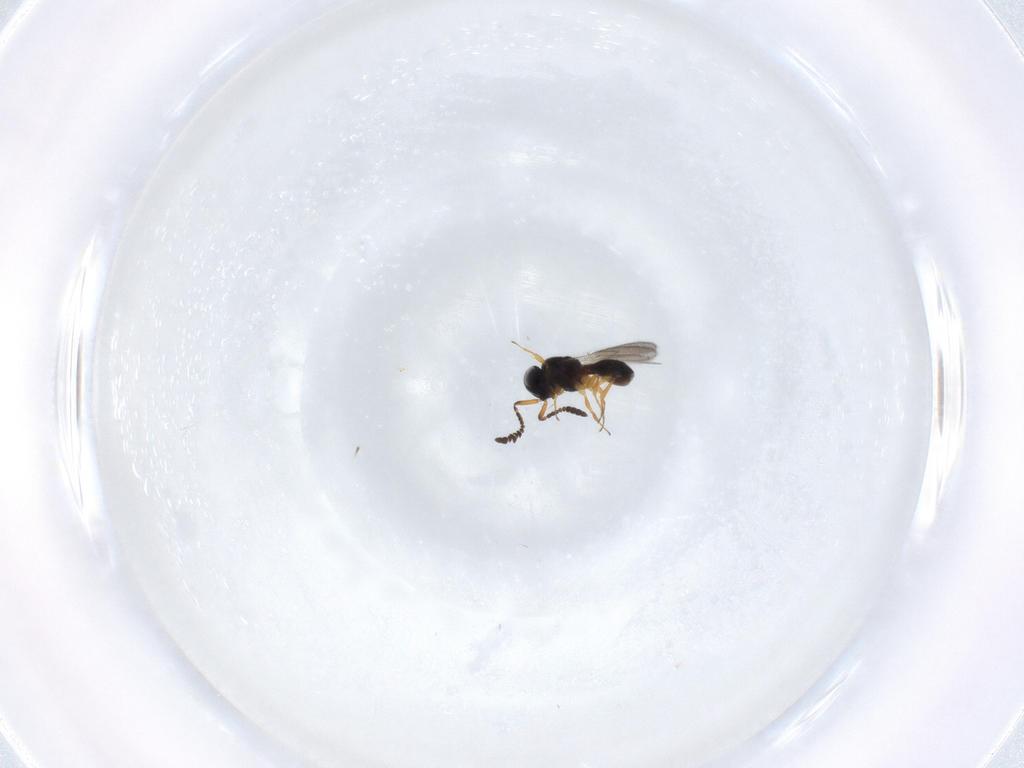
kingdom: Animalia
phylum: Arthropoda
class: Insecta
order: Hymenoptera
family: Scelionidae
